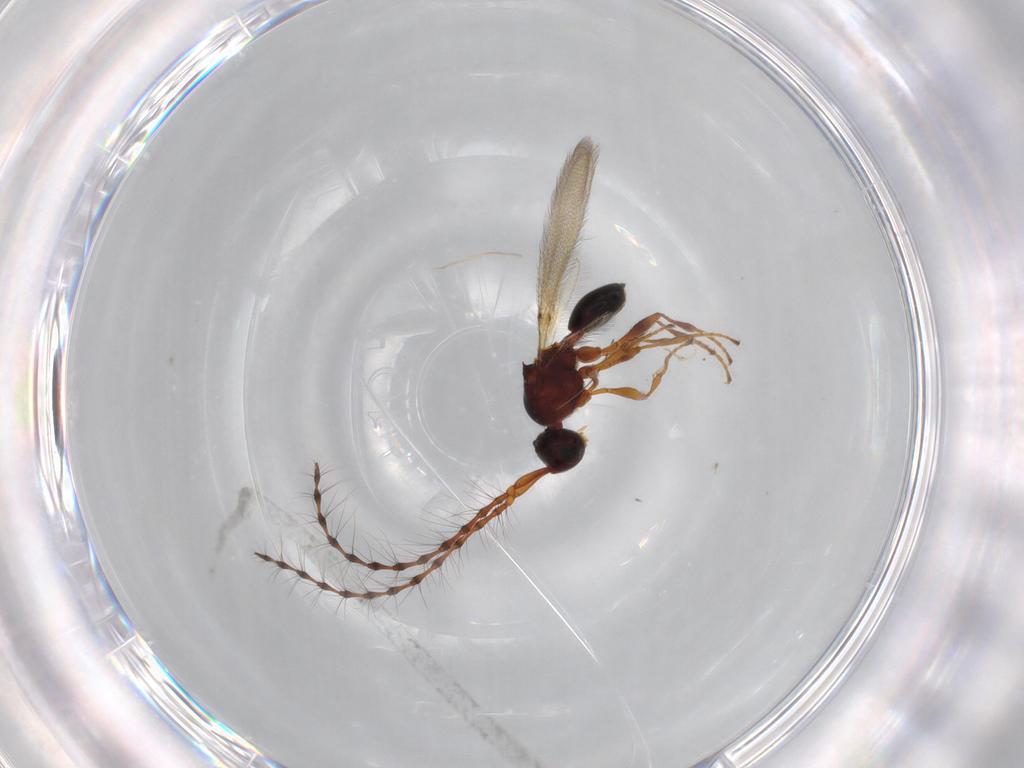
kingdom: Animalia
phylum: Arthropoda
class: Insecta
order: Hymenoptera
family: Diapriidae
